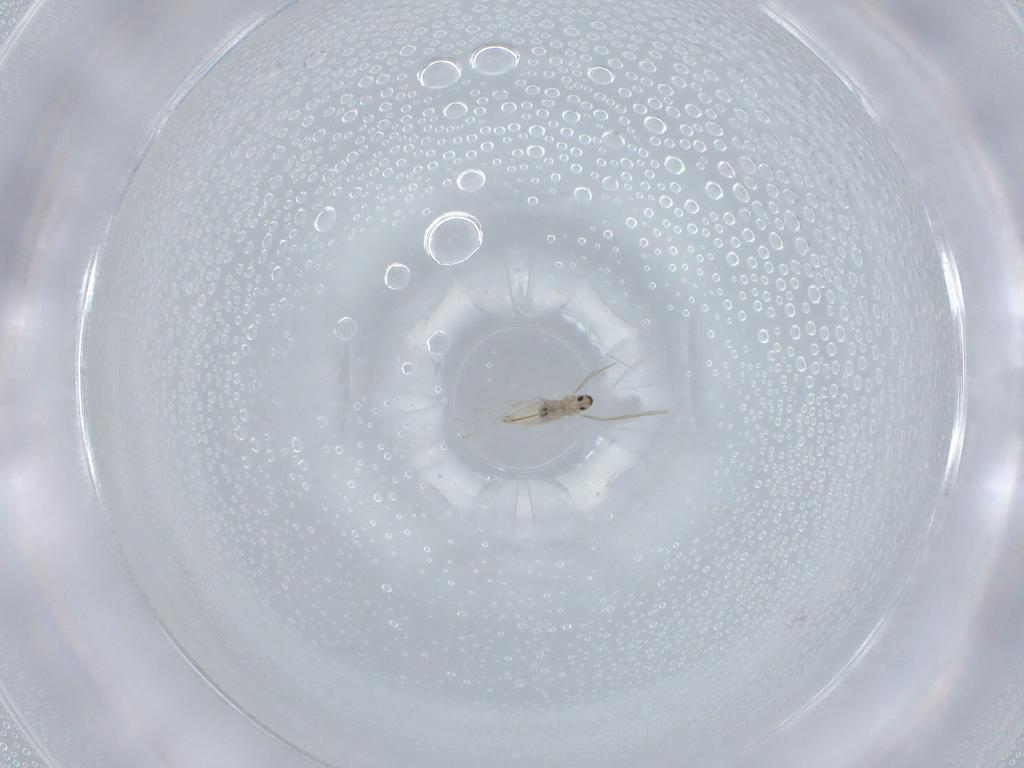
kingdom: Animalia
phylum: Arthropoda
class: Insecta
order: Diptera
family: Cecidomyiidae
